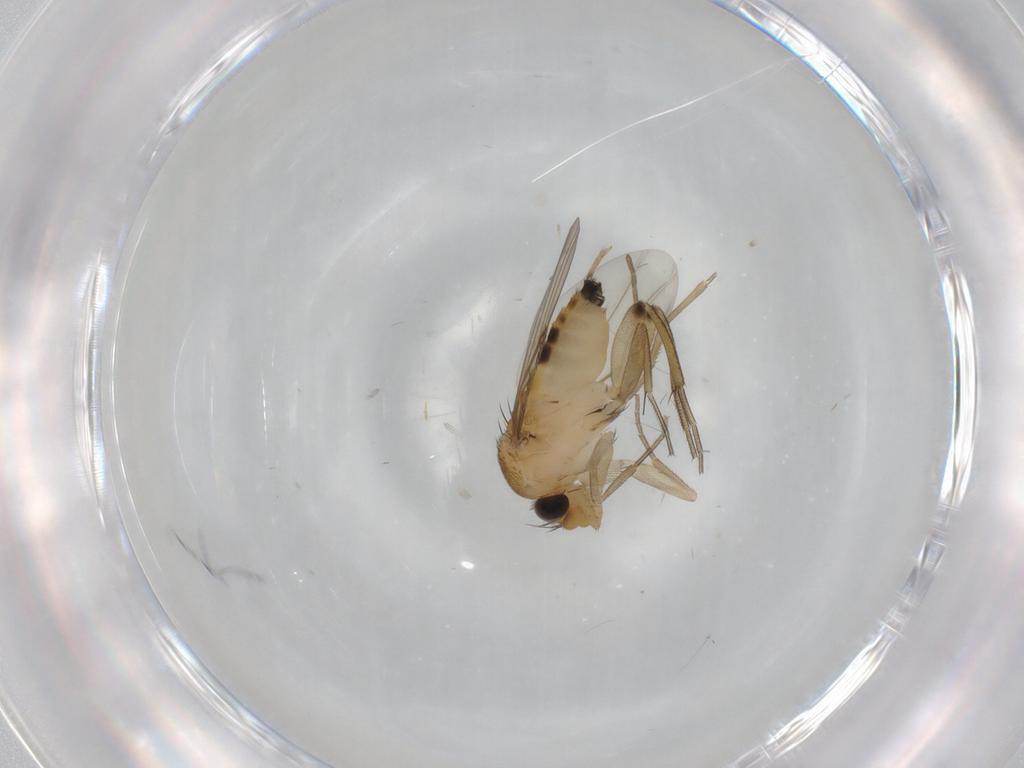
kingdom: Animalia
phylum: Arthropoda
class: Insecta
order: Diptera
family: Phoridae
